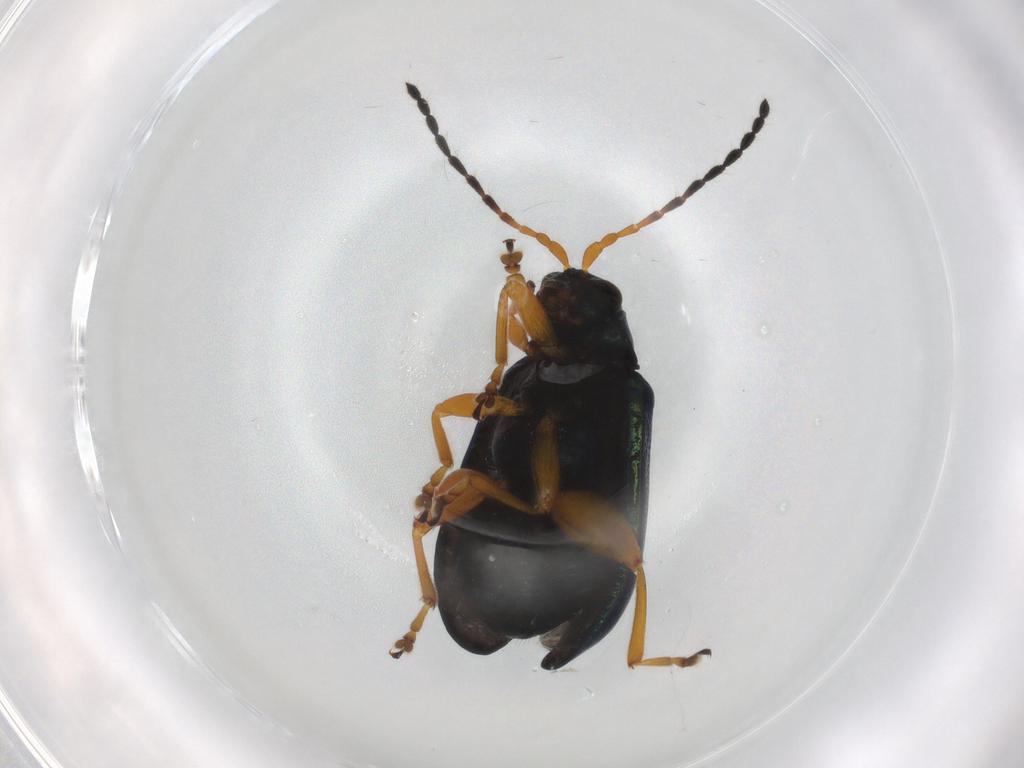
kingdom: Animalia
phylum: Arthropoda
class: Insecta
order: Coleoptera
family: Chrysomelidae
